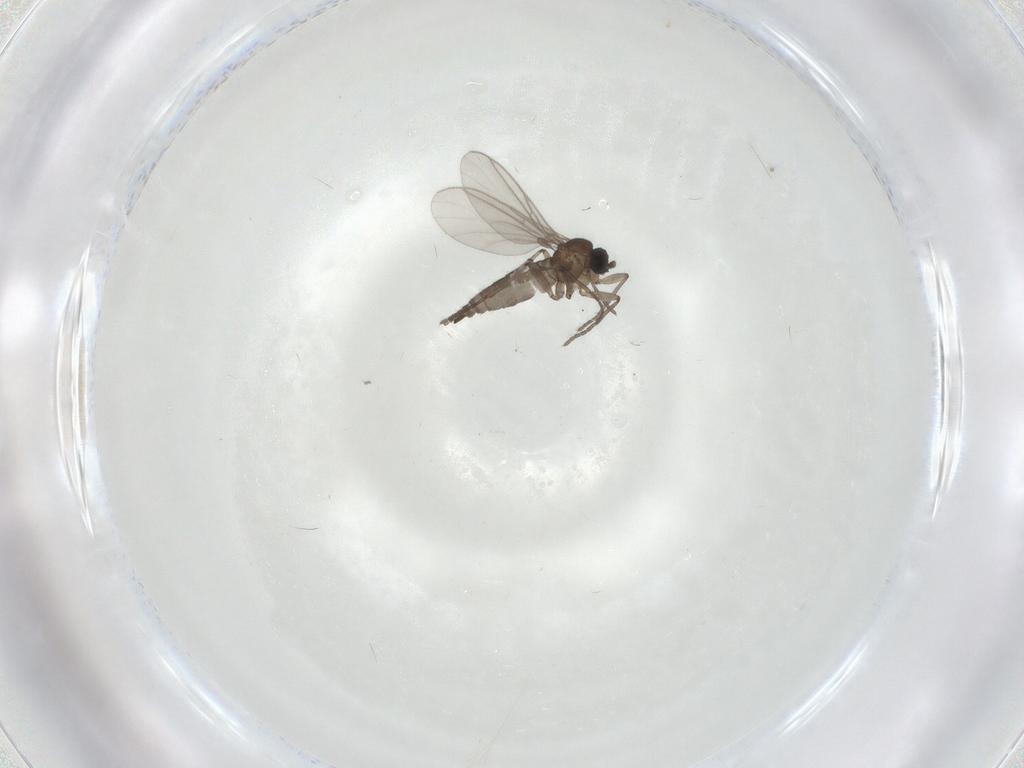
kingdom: Animalia
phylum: Arthropoda
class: Insecta
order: Diptera
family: Sciaridae
